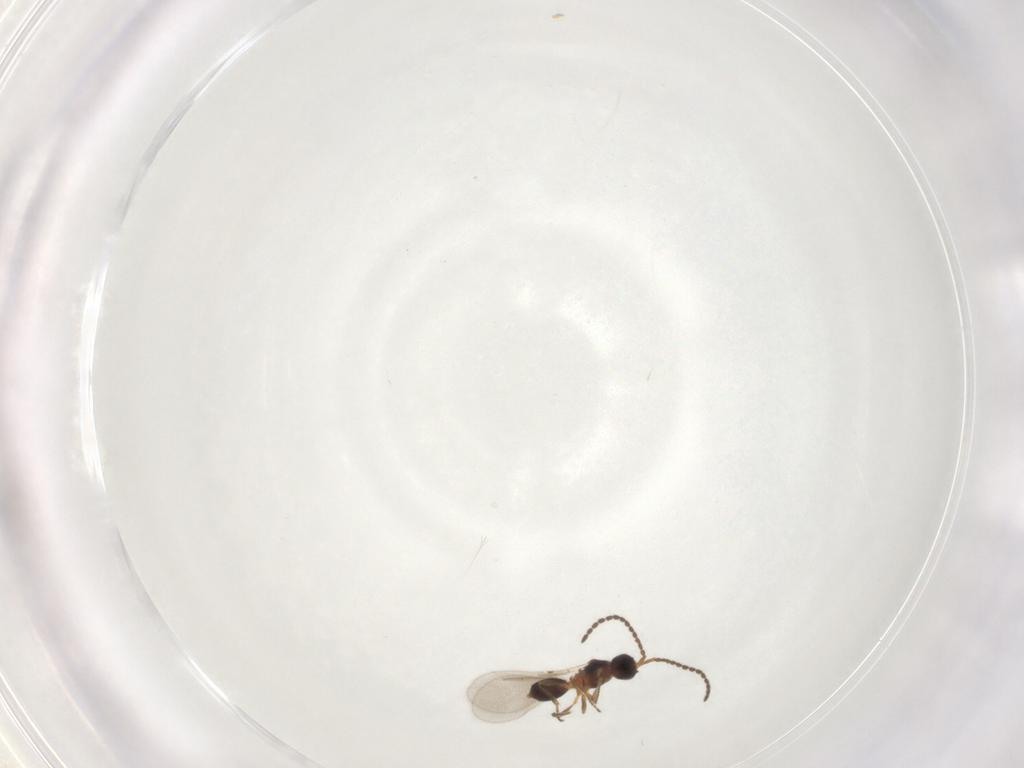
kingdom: Animalia
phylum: Arthropoda
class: Insecta
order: Hymenoptera
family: Diapriidae
